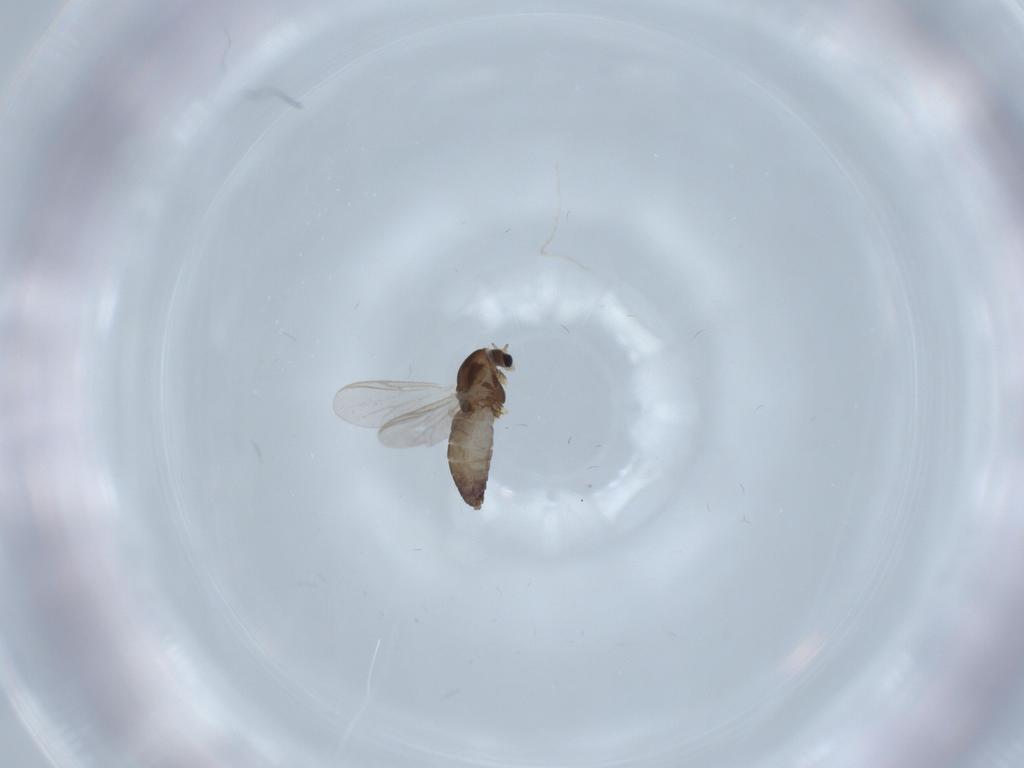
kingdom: Animalia
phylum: Arthropoda
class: Insecta
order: Diptera
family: Chironomidae
